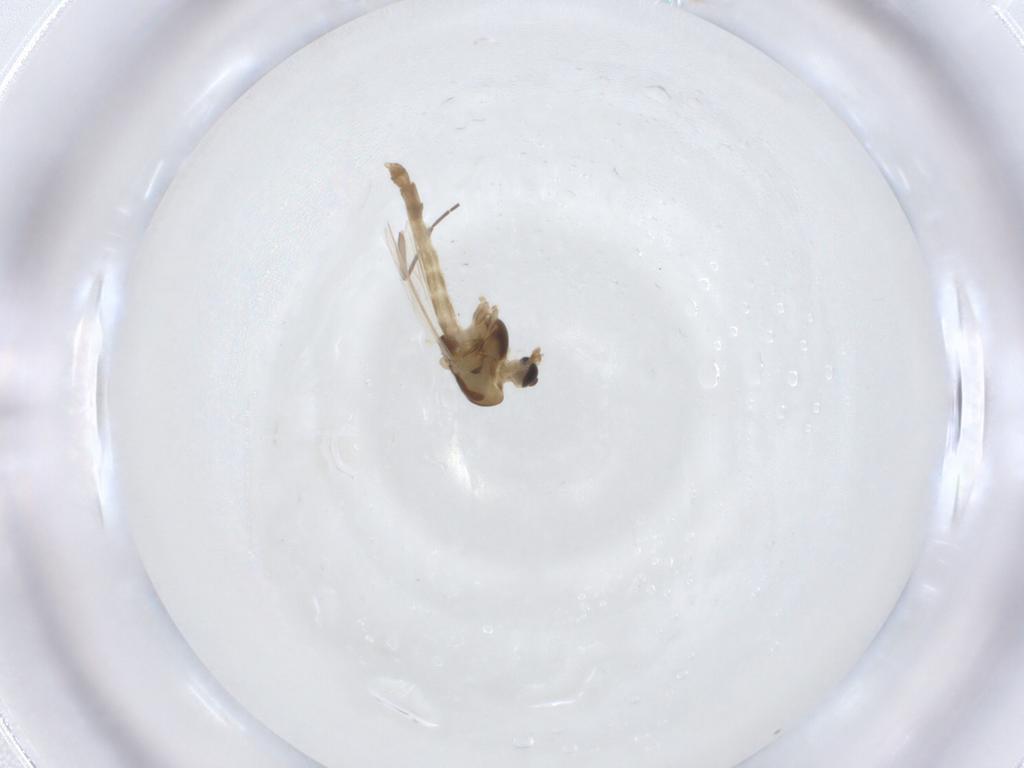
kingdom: Animalia
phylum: Arthropoda
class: Insecta
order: Diptera
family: Chironomidae
